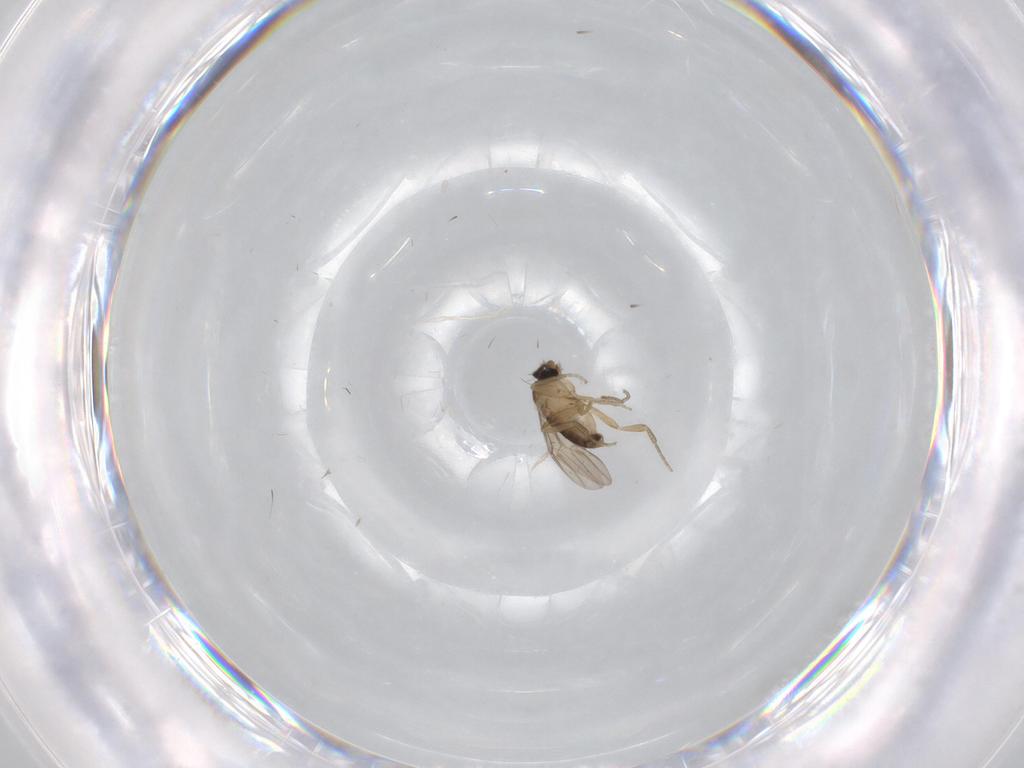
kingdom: Animalia
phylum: Arthropoda
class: Insecta
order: Diptera
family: Phoridae
